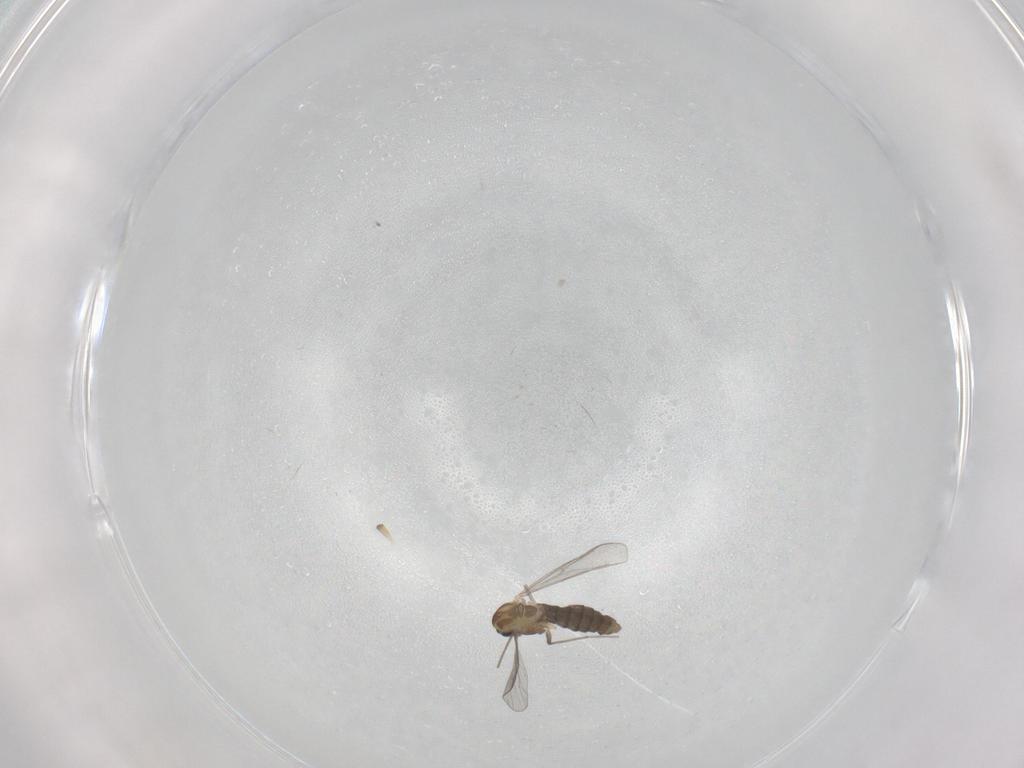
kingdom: Animalia
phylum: Arthropoda
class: Insecta
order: Diptera
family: Chironomidae
